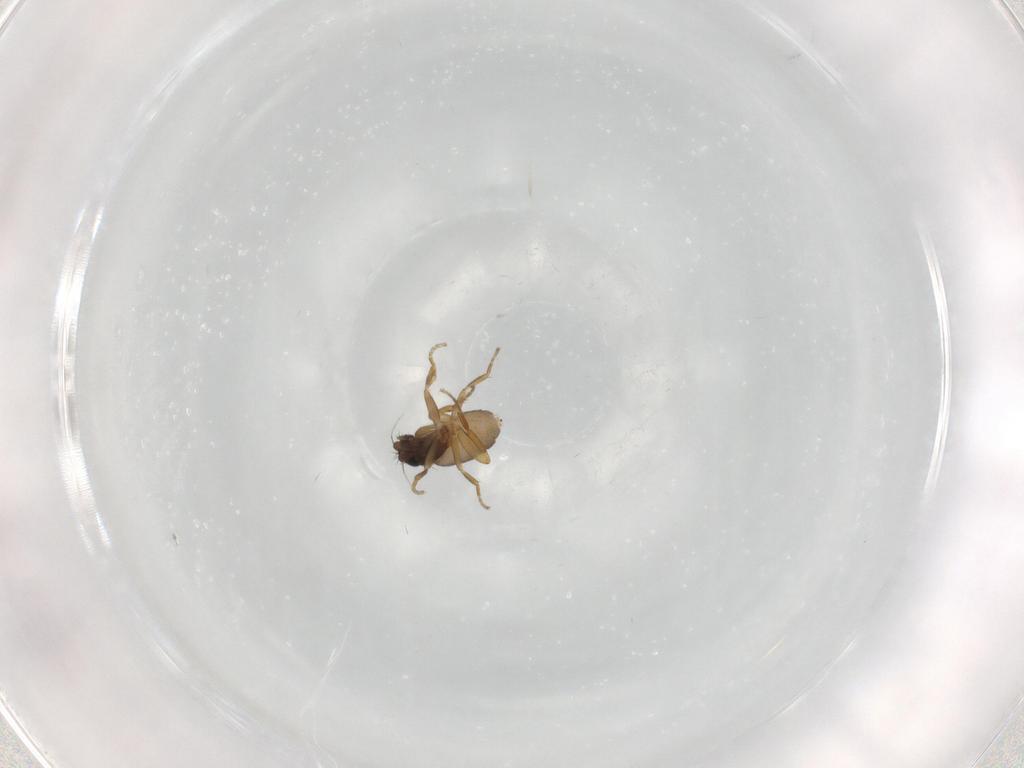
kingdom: Animalia
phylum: Arthropoda
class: Insecta
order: Diptera
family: Phoridae
